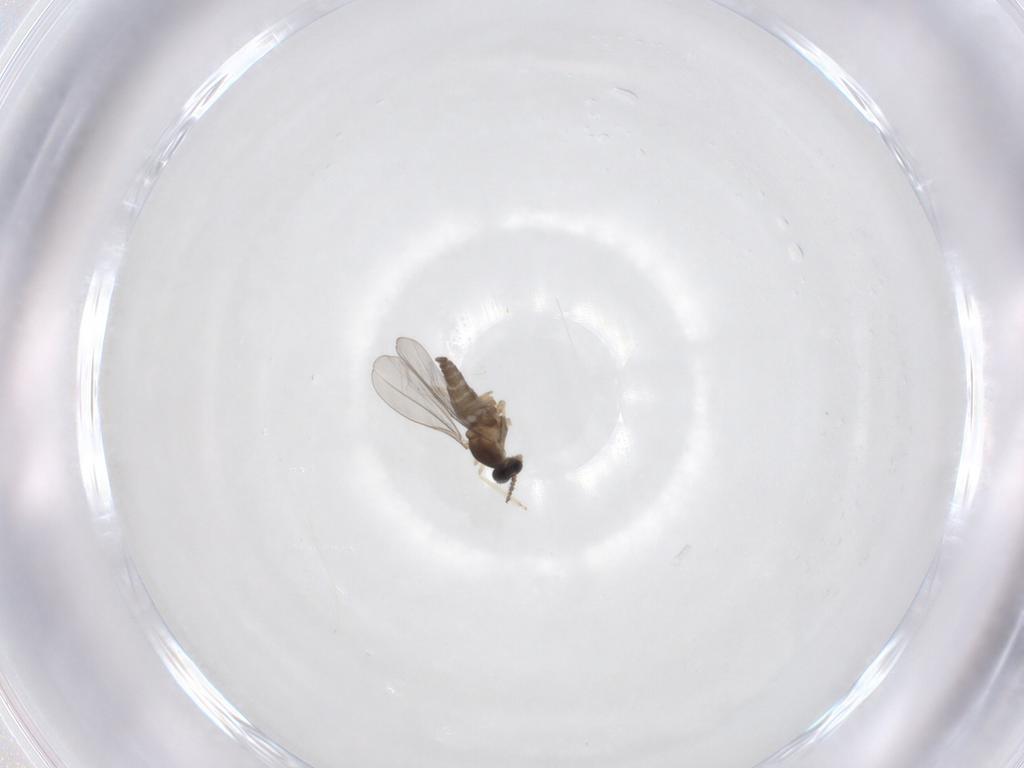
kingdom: Animalia
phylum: Arthropoda
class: Insecta
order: Diptera
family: Cecidomyiidae
